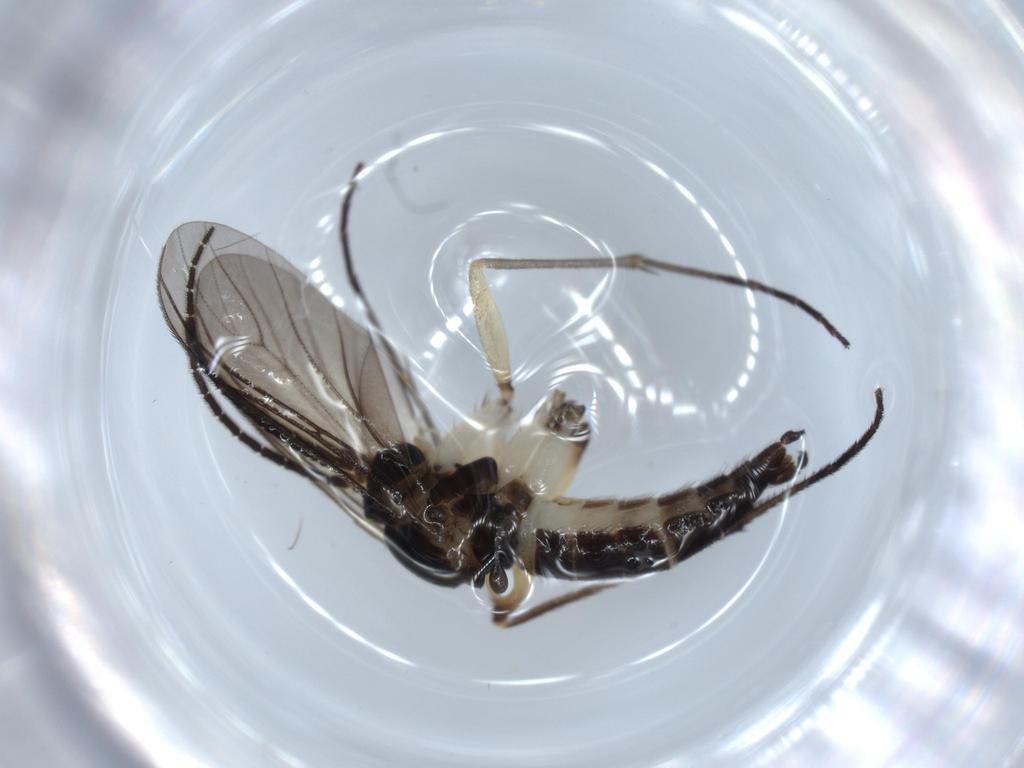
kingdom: Animalia
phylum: Arthropoda
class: Insecta
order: Diptera
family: Sciaridae
